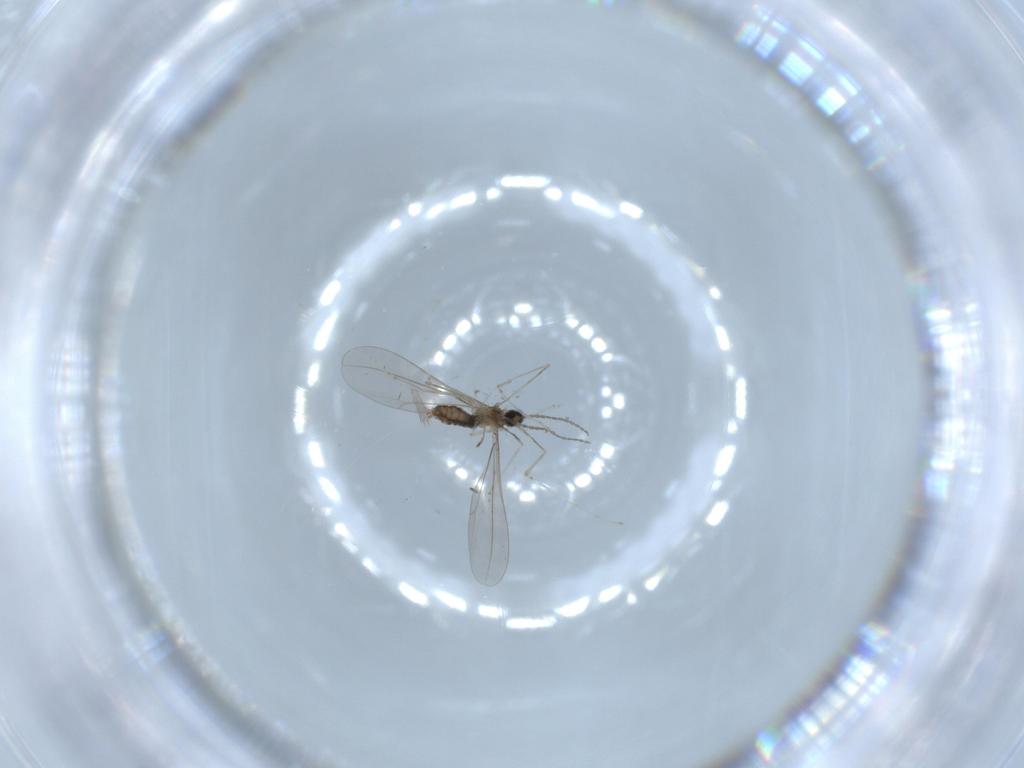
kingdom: Animalia
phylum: Arthropoda
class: Insecta
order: Diptera
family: Cecidomyiidae
